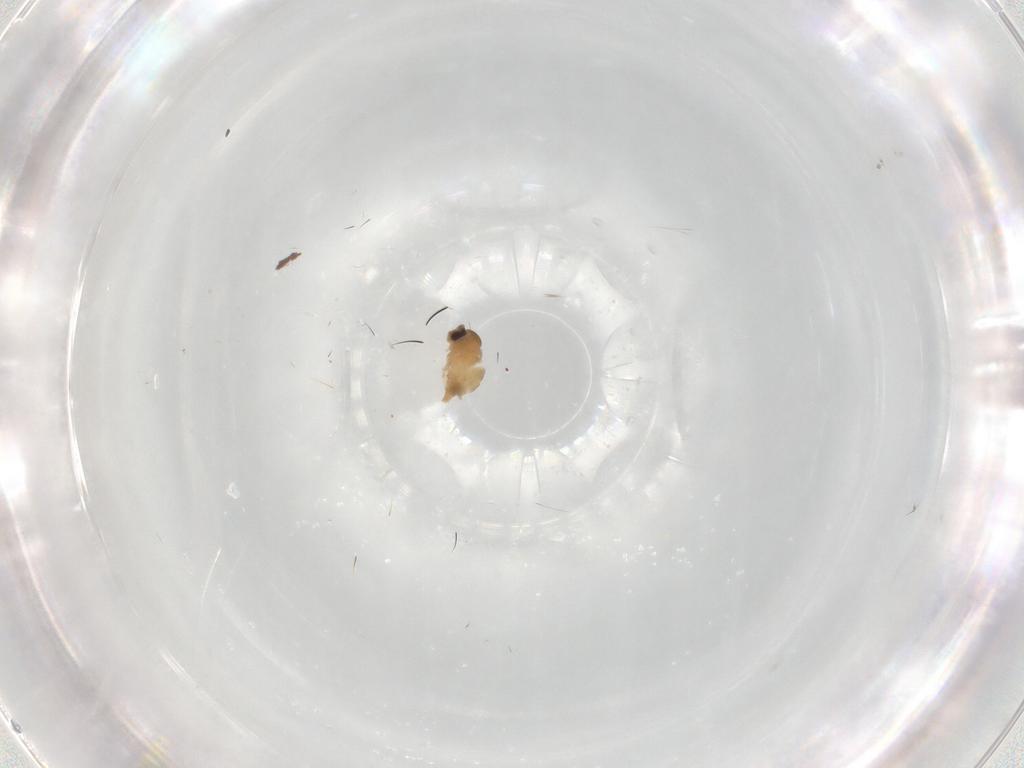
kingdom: Animalia
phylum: Arthropoda
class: Insecta
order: Diptera
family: Cecidomyiidae
